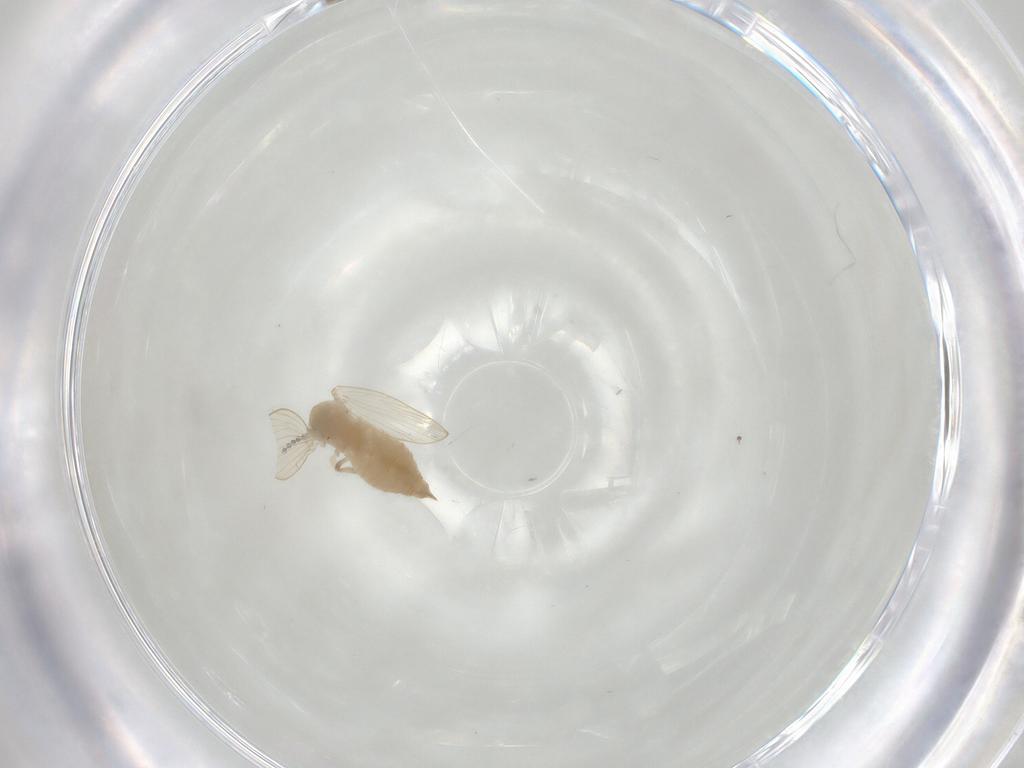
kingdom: Animalia
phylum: Arthropoda
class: Insecta
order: Diptera
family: Psychodidae
